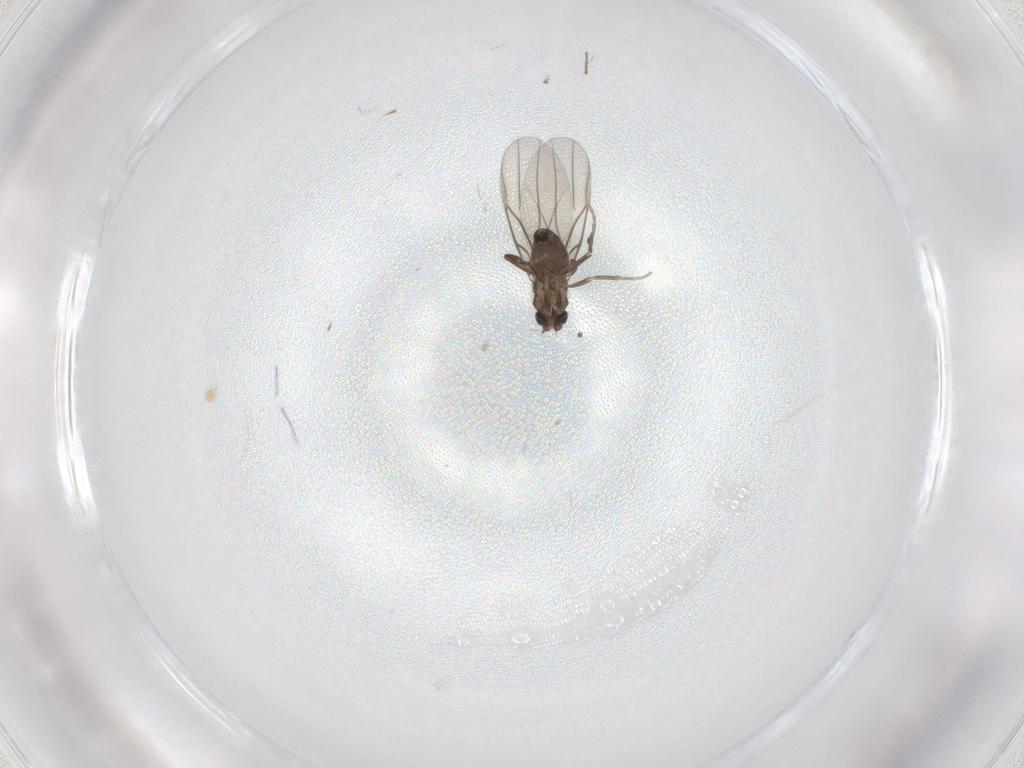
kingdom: Animalia
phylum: Arthropoda
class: Insecta
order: Diptera
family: Phoridae
